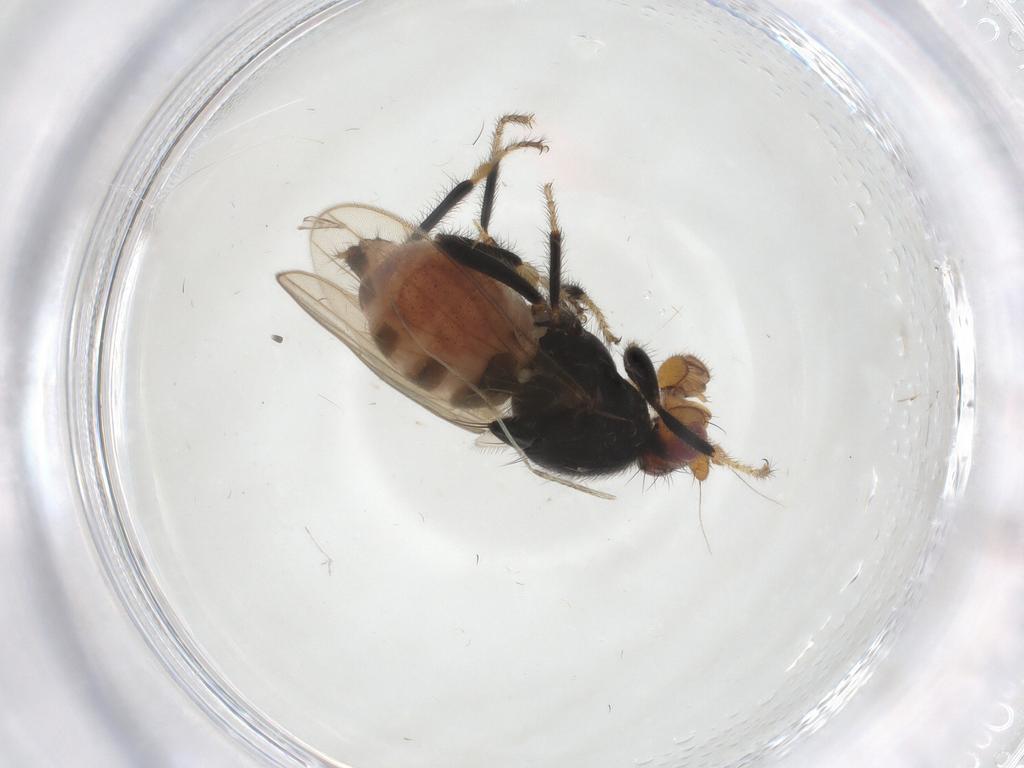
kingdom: Animalia
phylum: Arthropoda
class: Insecta
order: Diptera
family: Sphaeroceridae
